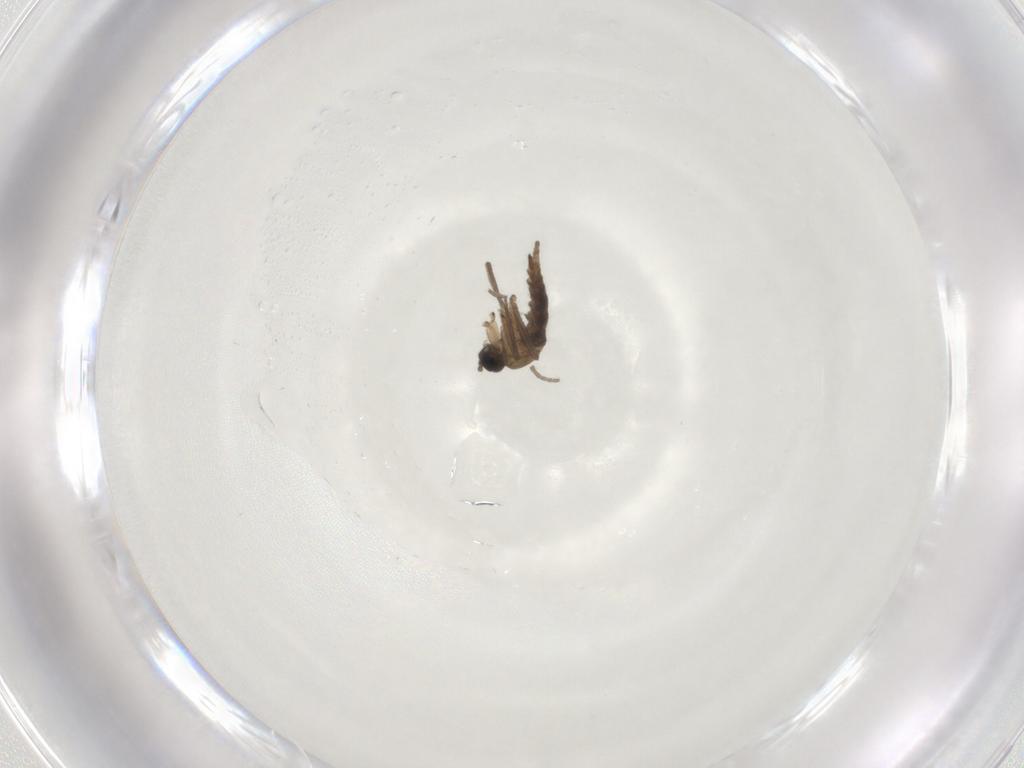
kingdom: Animalia
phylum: Arthropoda
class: Insecta
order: Diptera
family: Sciaridae
